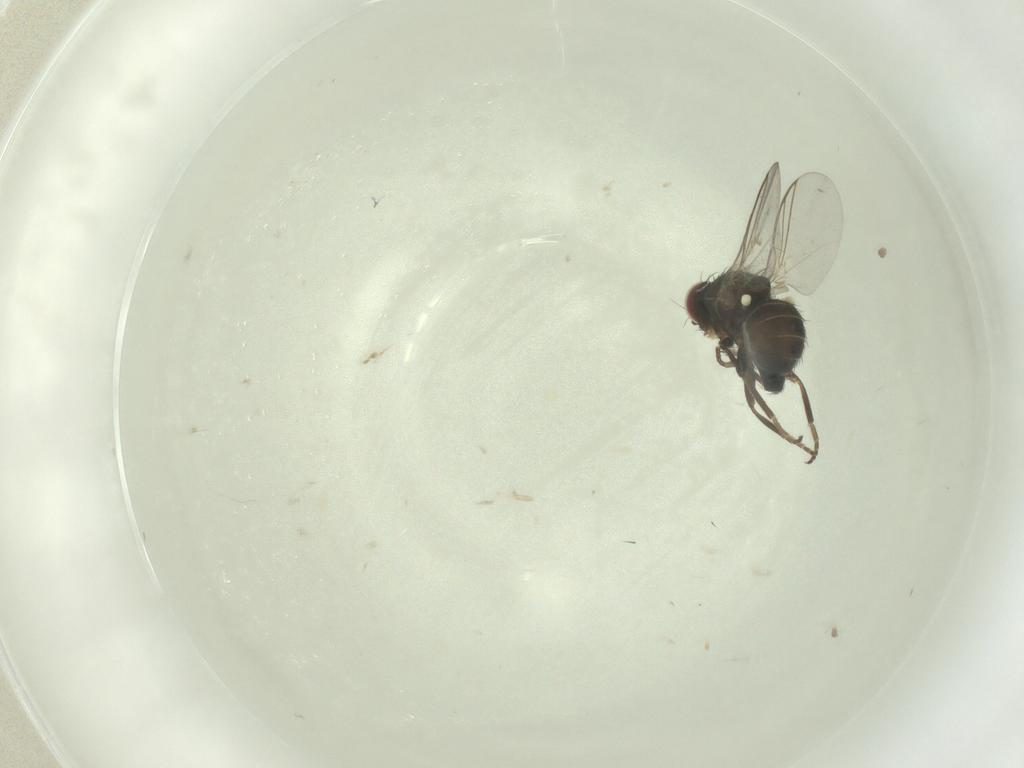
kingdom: Animalia
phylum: Arthropoda
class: Insecta
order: Diptera
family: Agromyzidae
